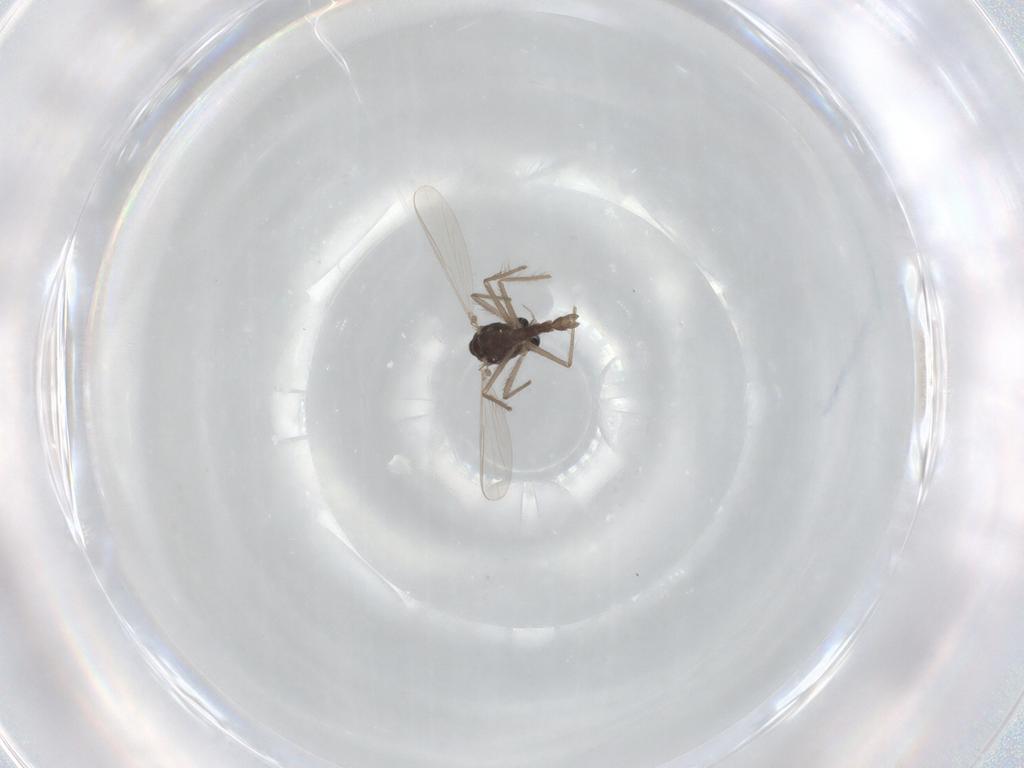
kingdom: Animalia
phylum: Arthropoda
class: Insecta
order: Diptera
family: Chironomidae
